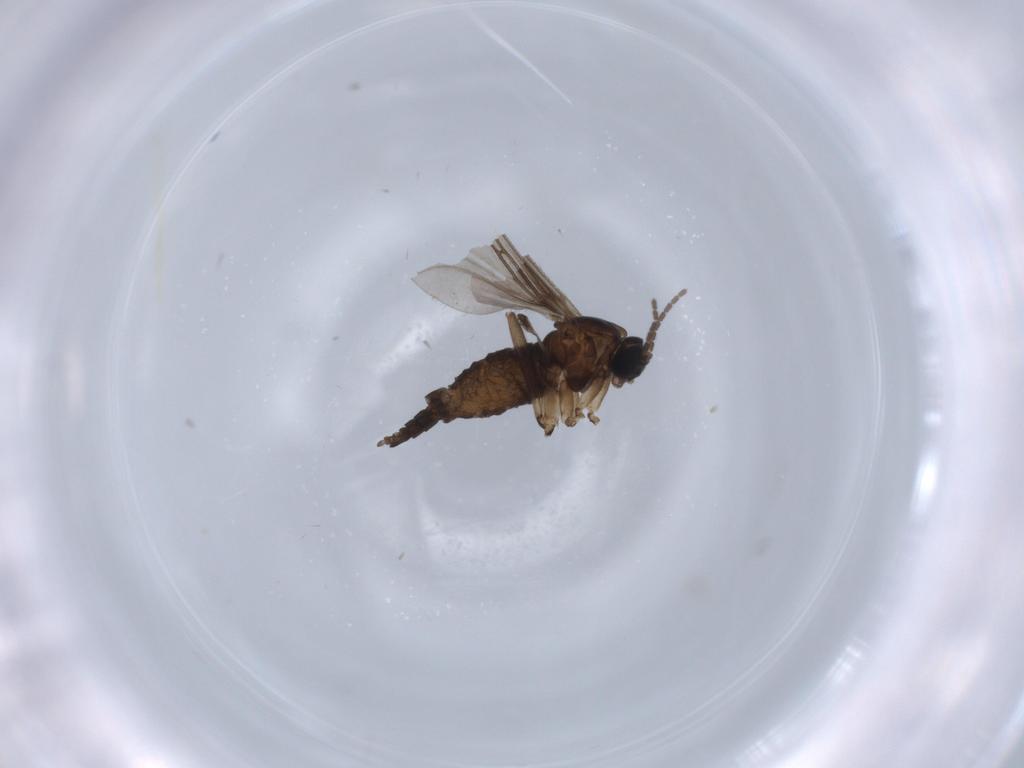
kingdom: Animalia
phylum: Arthropoda
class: Insecta
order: Diptera
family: Sciaridae
